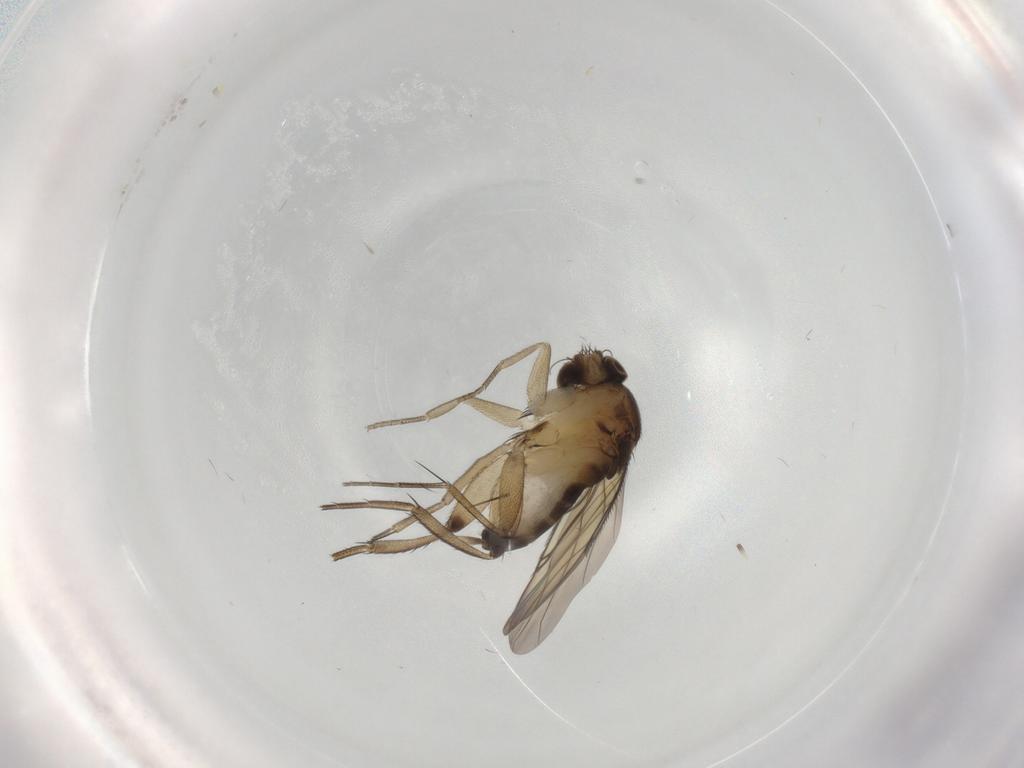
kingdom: Animalia
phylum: Arthropoda
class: Insecta
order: Diptera
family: Phoridae
